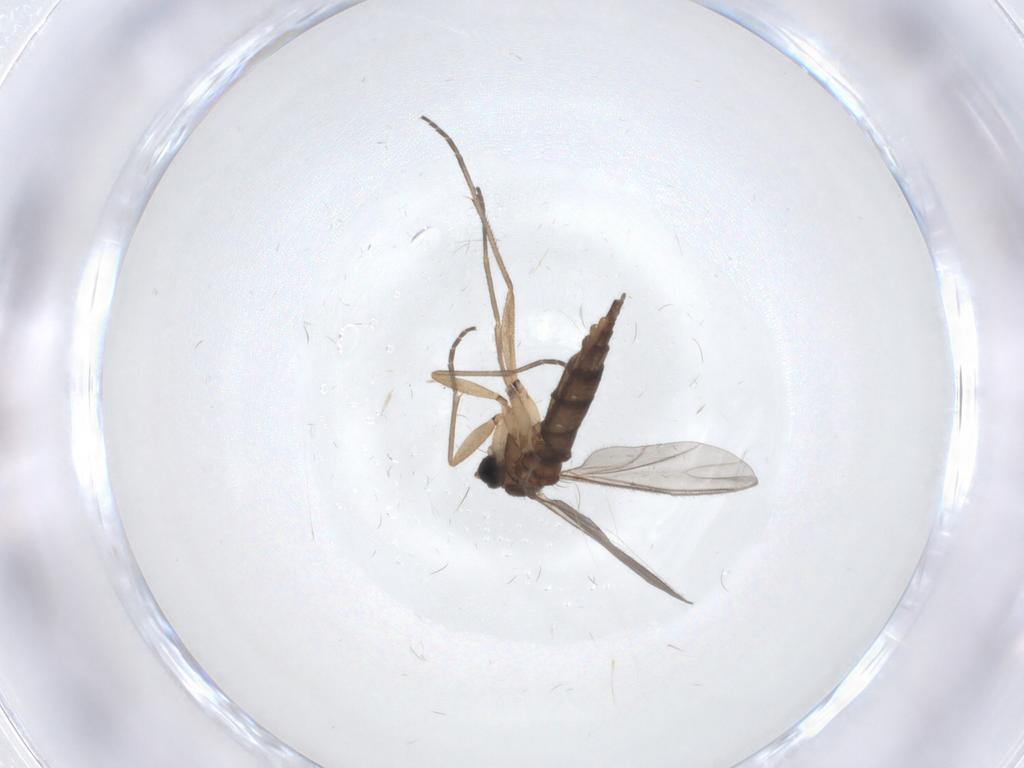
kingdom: Animalia
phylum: Arthropoda
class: Insecta
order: Diptera
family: Sciaridae
